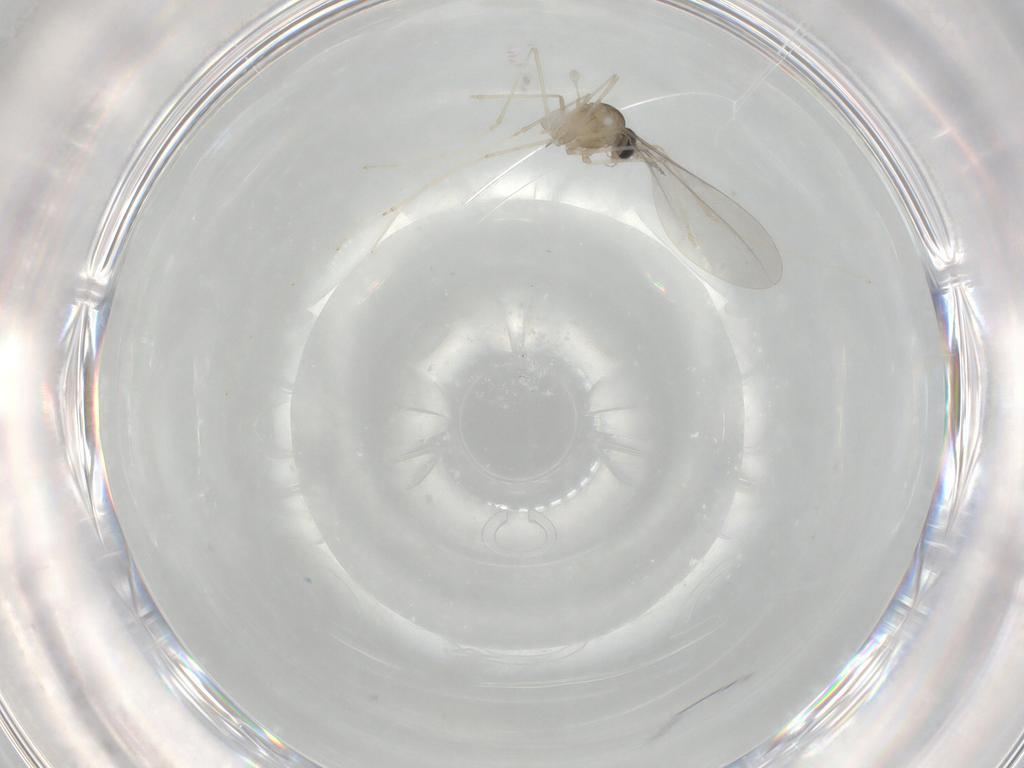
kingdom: Animalia
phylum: Arthropoda
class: Insecta
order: Diptera
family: Cecidomyiidae
